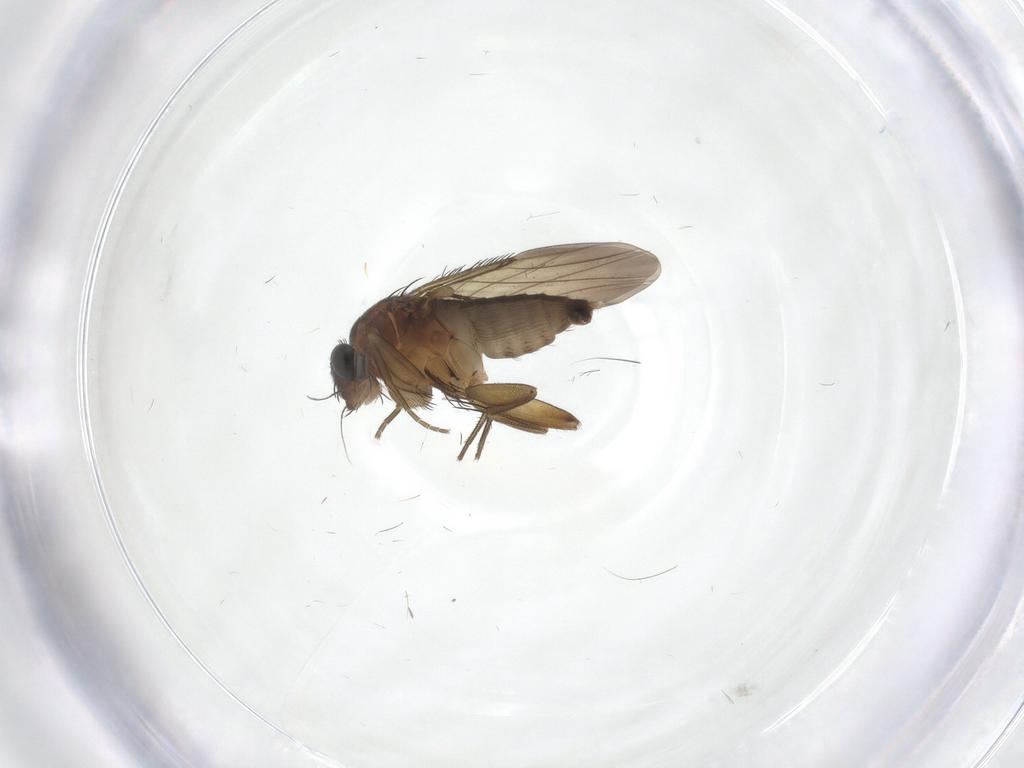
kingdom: Animalia
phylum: Arthropoda
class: Insecta
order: Diptera
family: Phoridae
